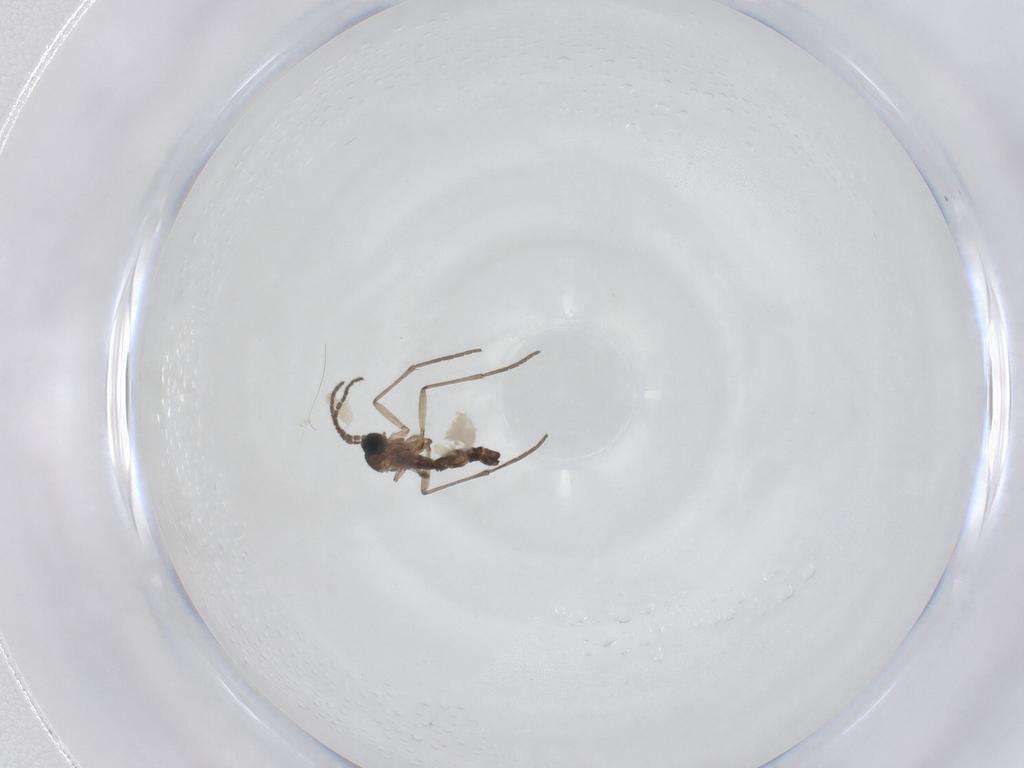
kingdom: Animalia
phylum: Arthropoda
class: Insecta
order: Diptera
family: Sciaridae
